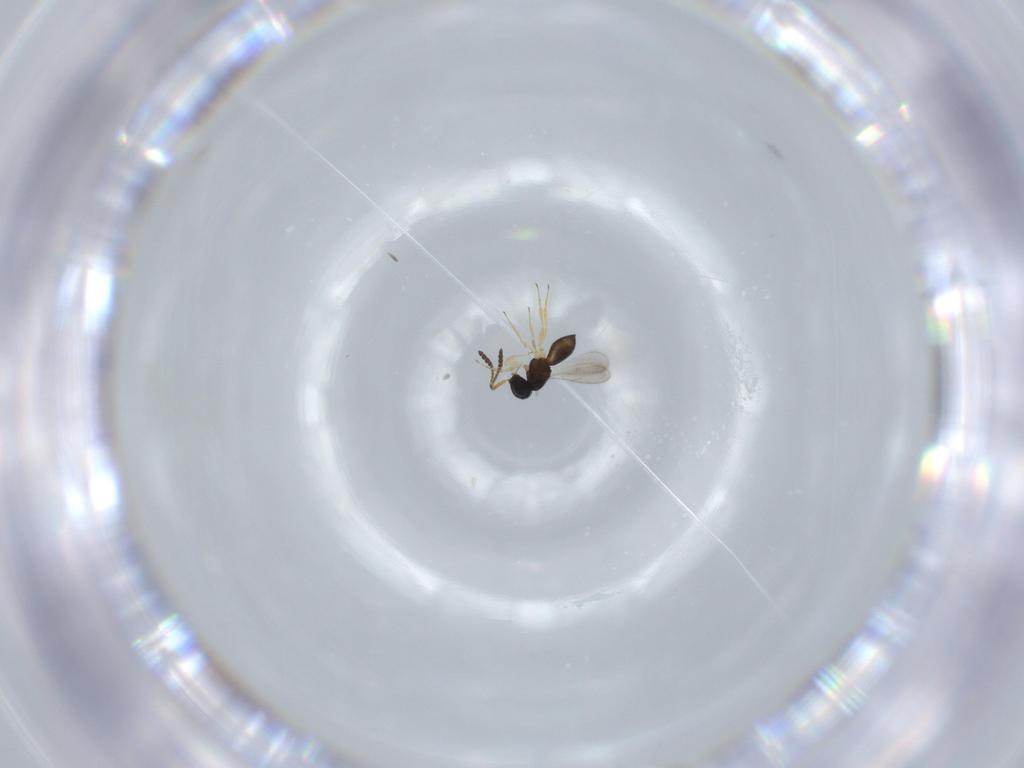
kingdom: Animalia
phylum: Arthropoda
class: Insecta
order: Hymenoptera
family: Scelionidae
